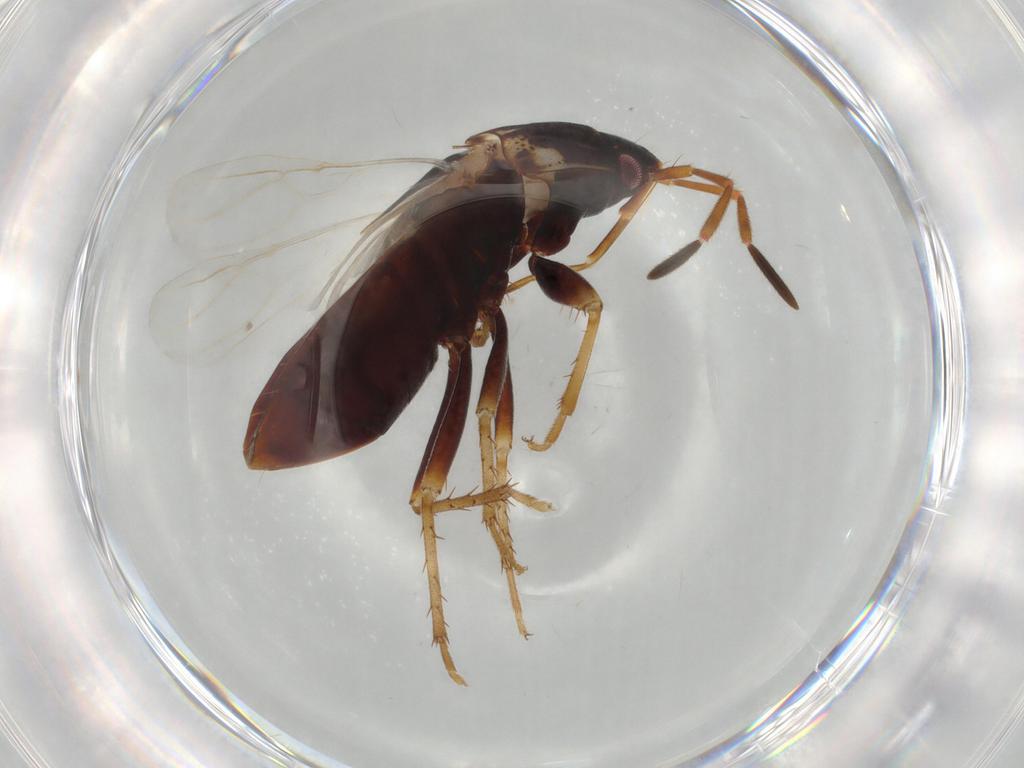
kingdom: Animalia
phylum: Arthropoda
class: Insecta
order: Hemiptera
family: Rhyparochromidae
